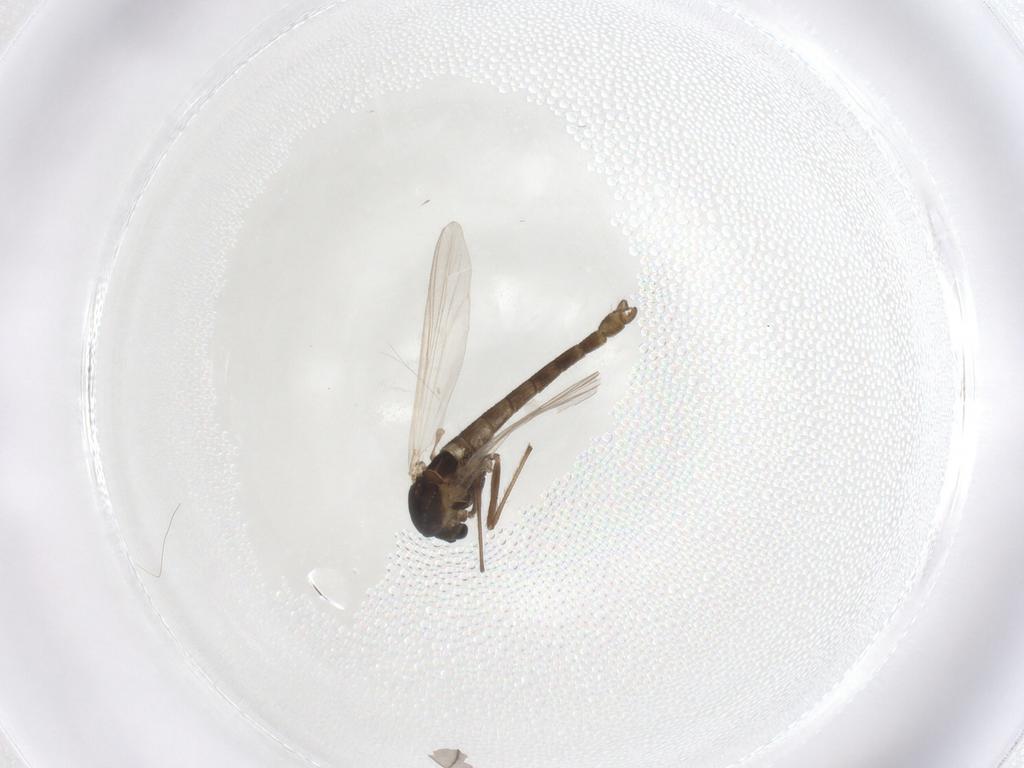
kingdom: Animalia
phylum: Arthropoda
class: Insecta
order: Diptera
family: Chironomidae
